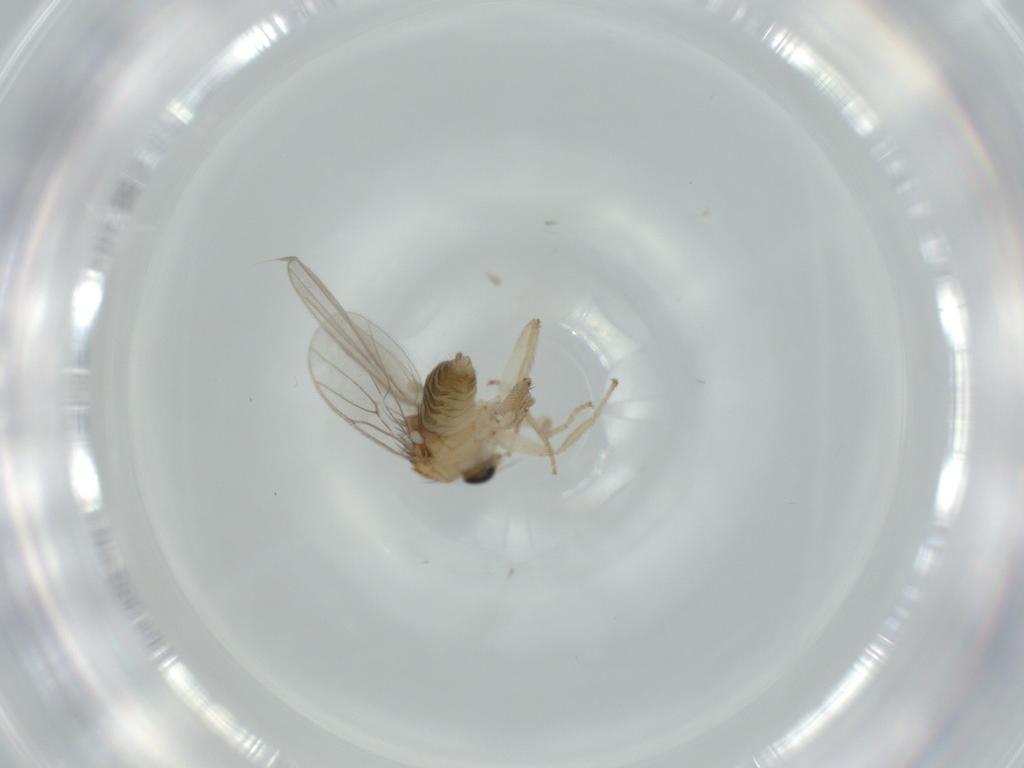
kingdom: Animalia
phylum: Arthropoda
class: Insecta
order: Diptera
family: Hybotidae
